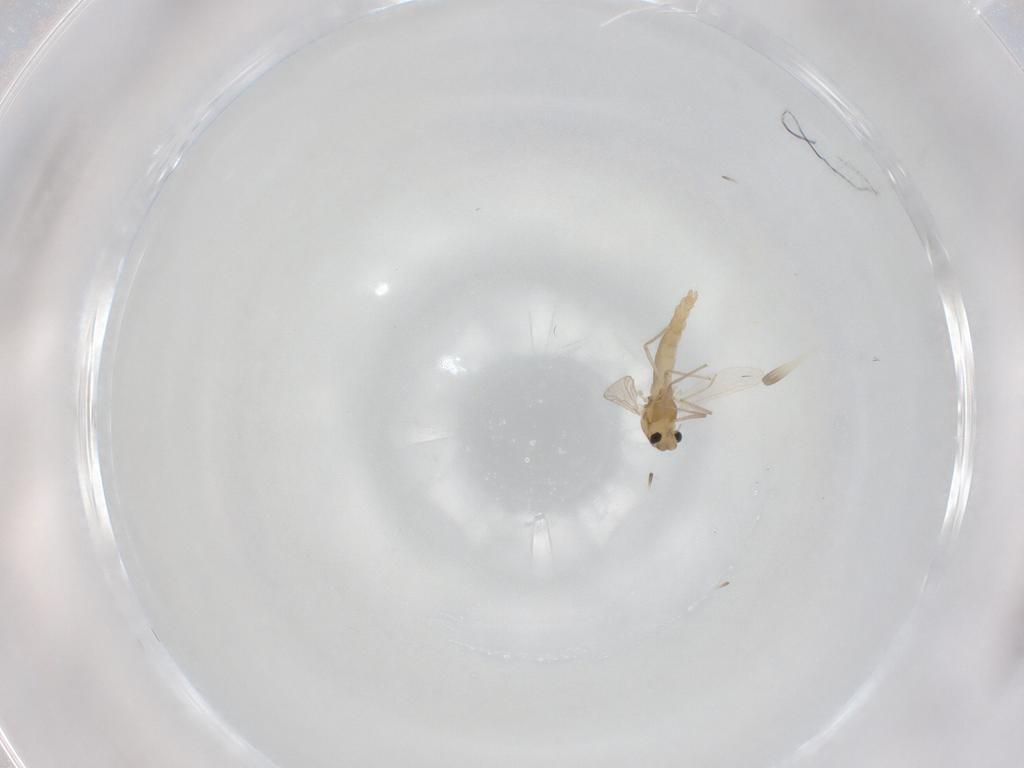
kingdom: Animalia
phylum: Arthropoda
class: Insecta
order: Diptera
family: Chironomidae
